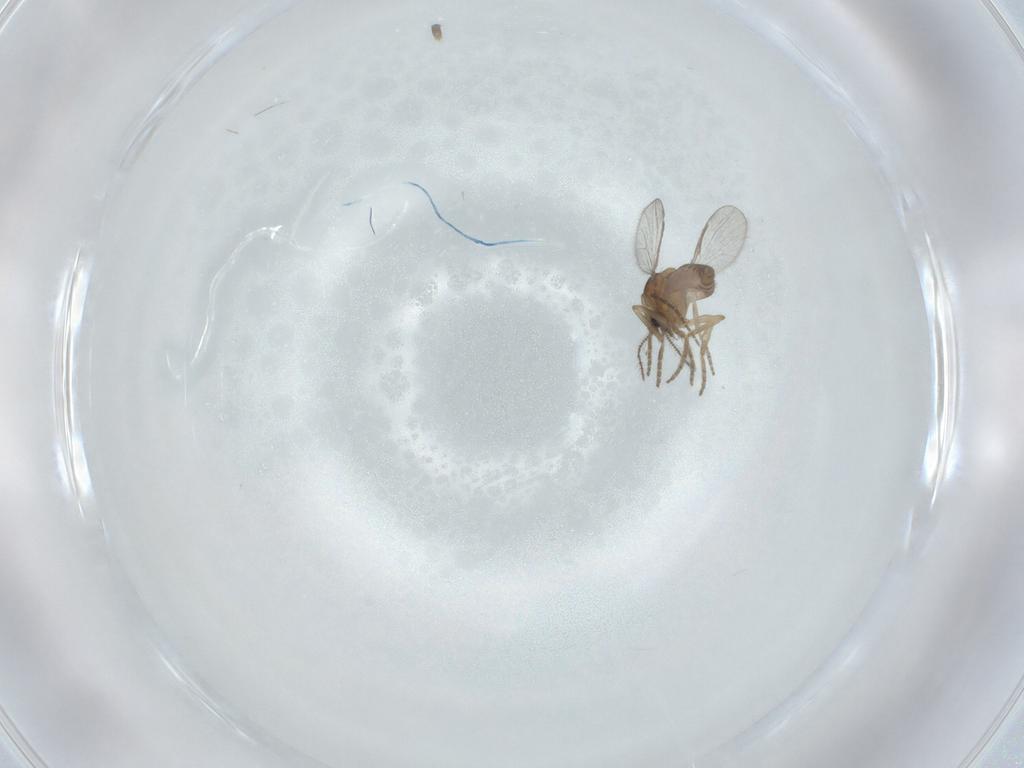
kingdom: Animalia
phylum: Arthropoda
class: Insecta
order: Diptera
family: Sciaridae
